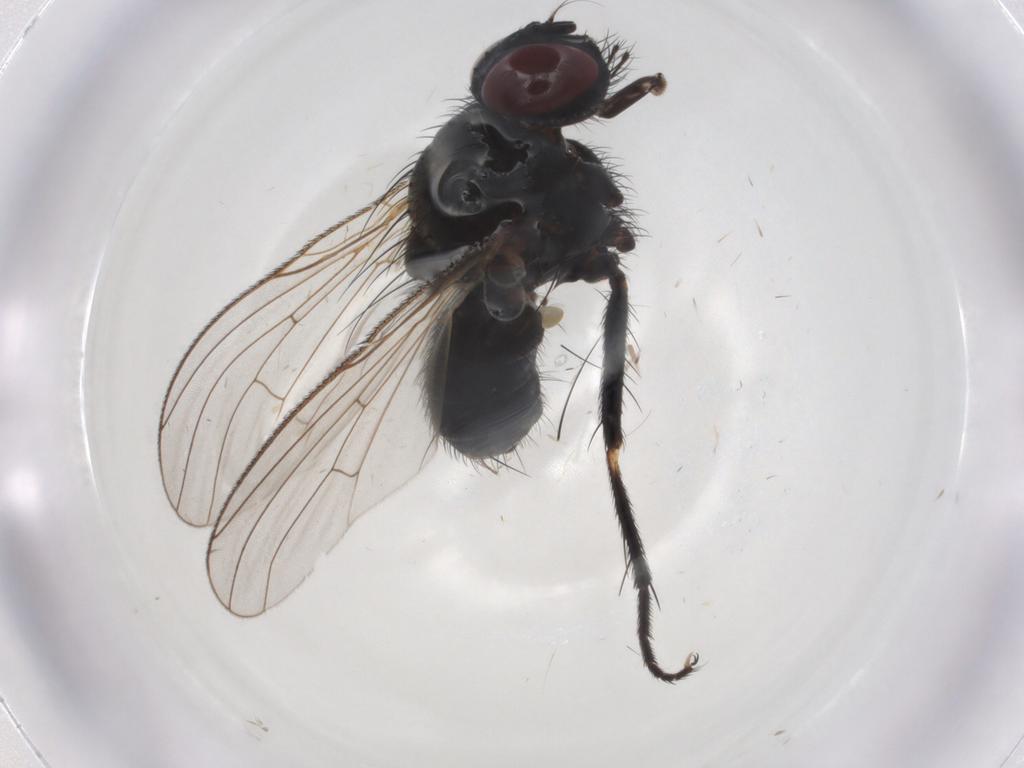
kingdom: Animalia
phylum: Arthropoda
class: Insecta
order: Diptera
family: Sciaridae
